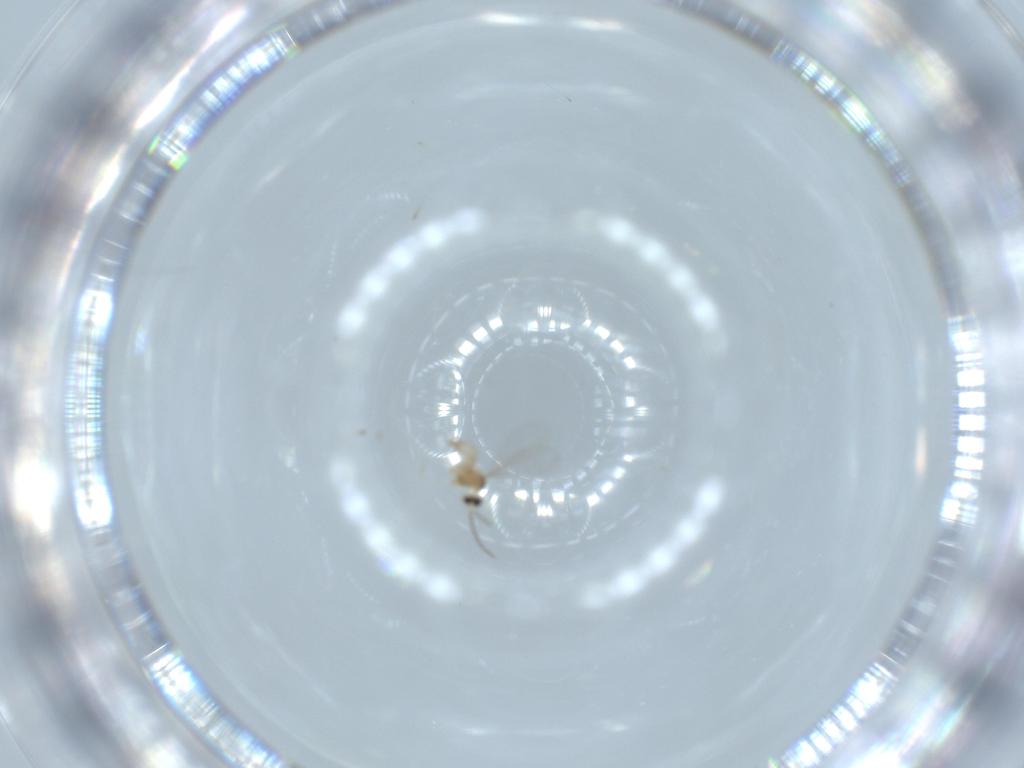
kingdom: Animalia
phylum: Arthropoda
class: Insecta
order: Diptera
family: Cecidomyiidae
